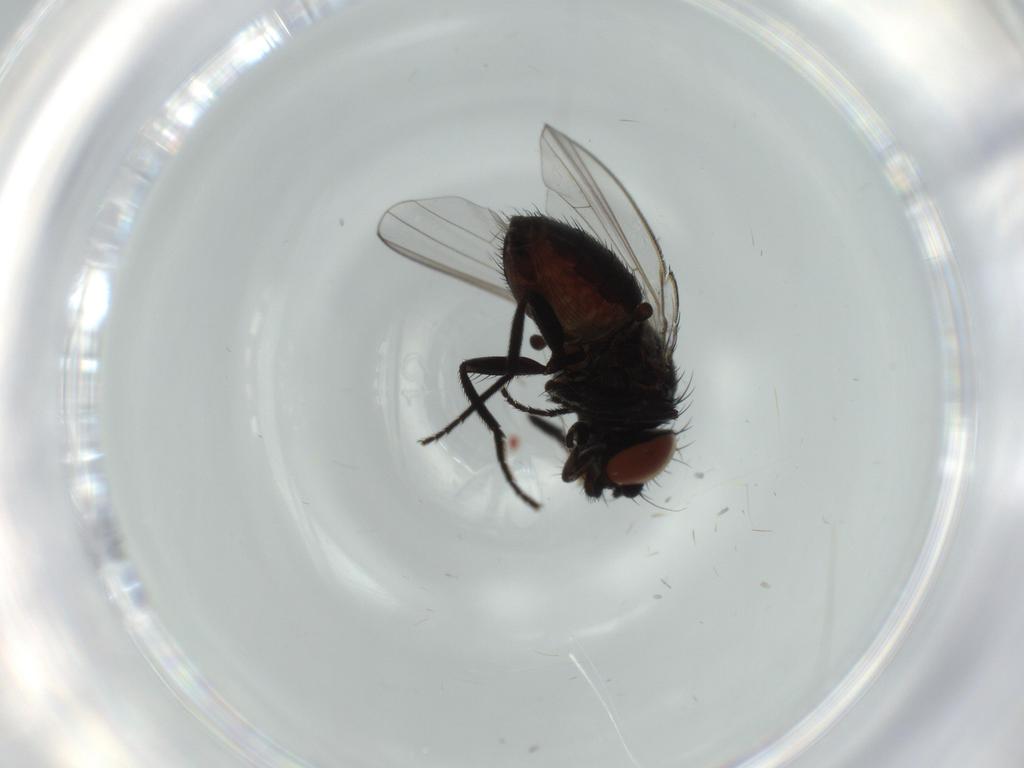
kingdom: Animalia
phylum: Arthropoda
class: Insecta
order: Diptera
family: Milichiidae
